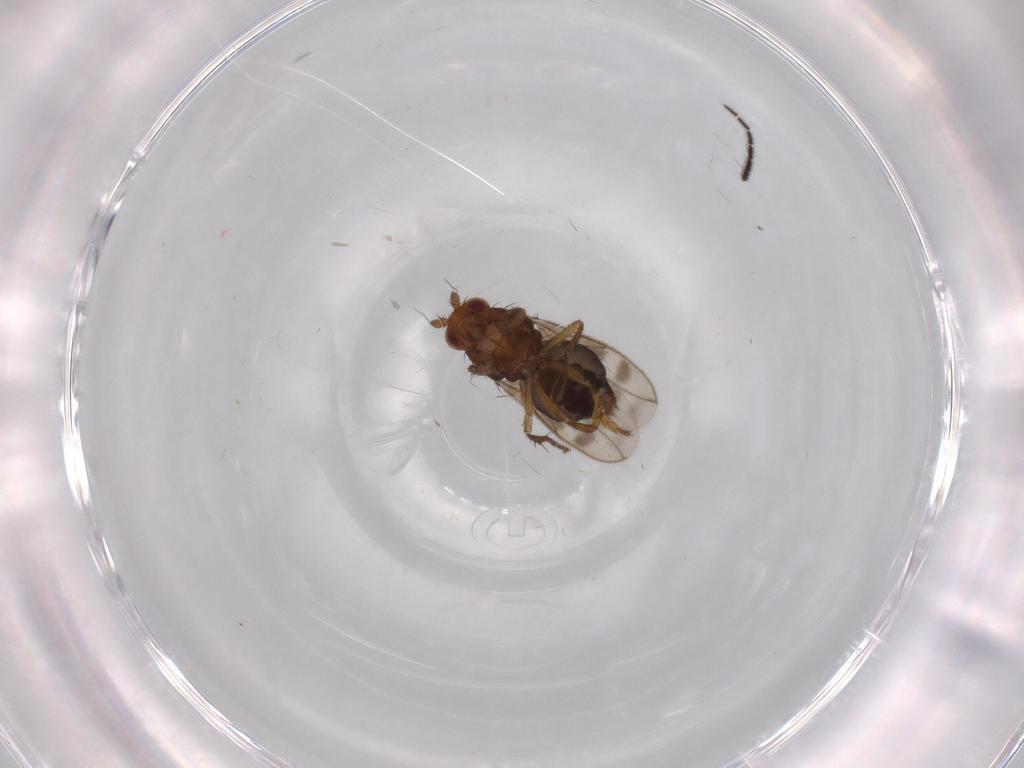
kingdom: Animalia
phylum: Arthropoda
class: Insecta
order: Diptera
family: Sphaeroceridae
